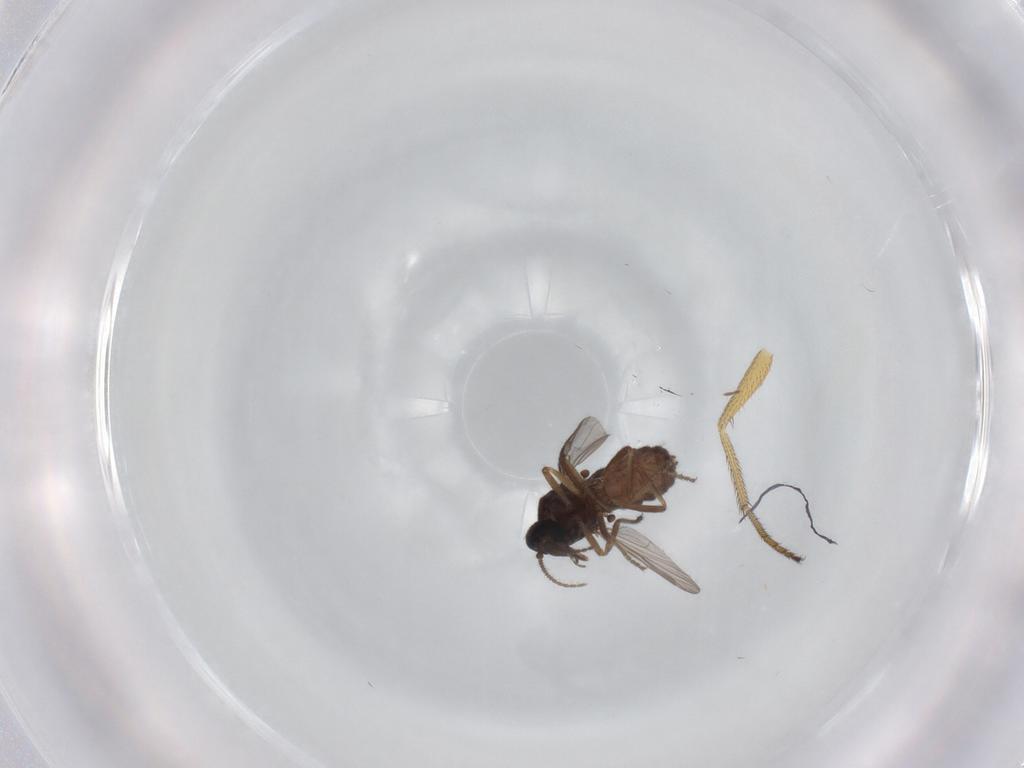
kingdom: Animalia
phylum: Arthropoda
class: Insecta
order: Diptera
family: Ceratopogonidae
